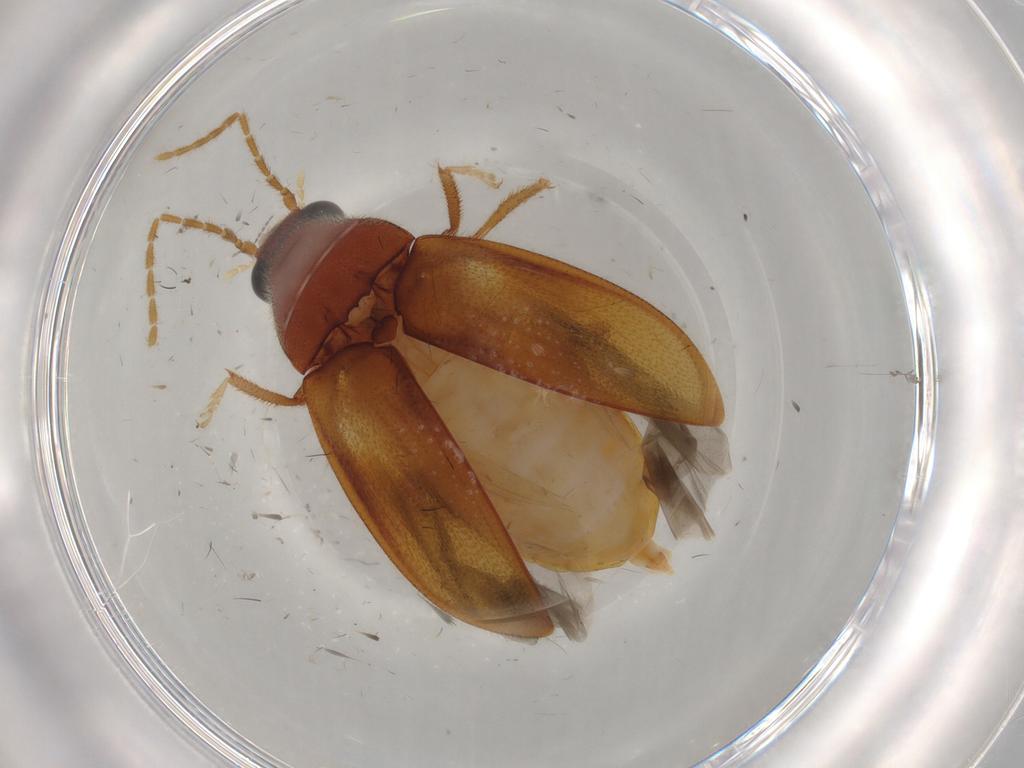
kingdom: Animalia
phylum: Arthropoda
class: Insecta
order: Coleoptera
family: Ptilodactylidae
